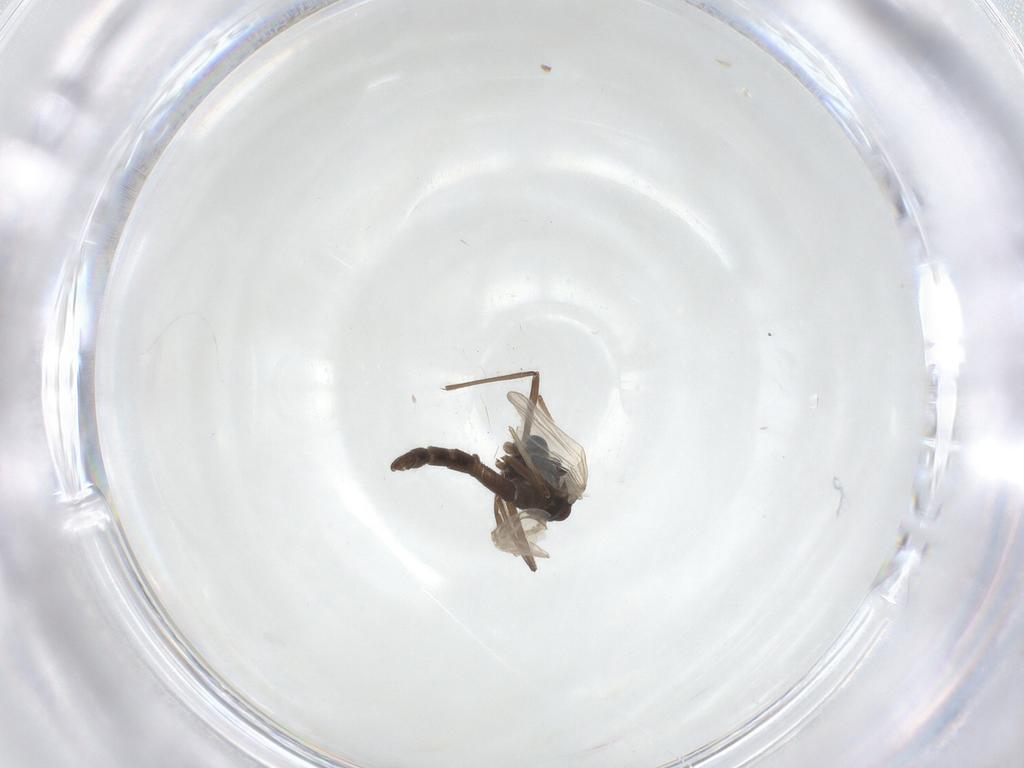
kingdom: Animalia
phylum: Arthropoda
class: Insecta
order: Diptera
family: Chironomidae
